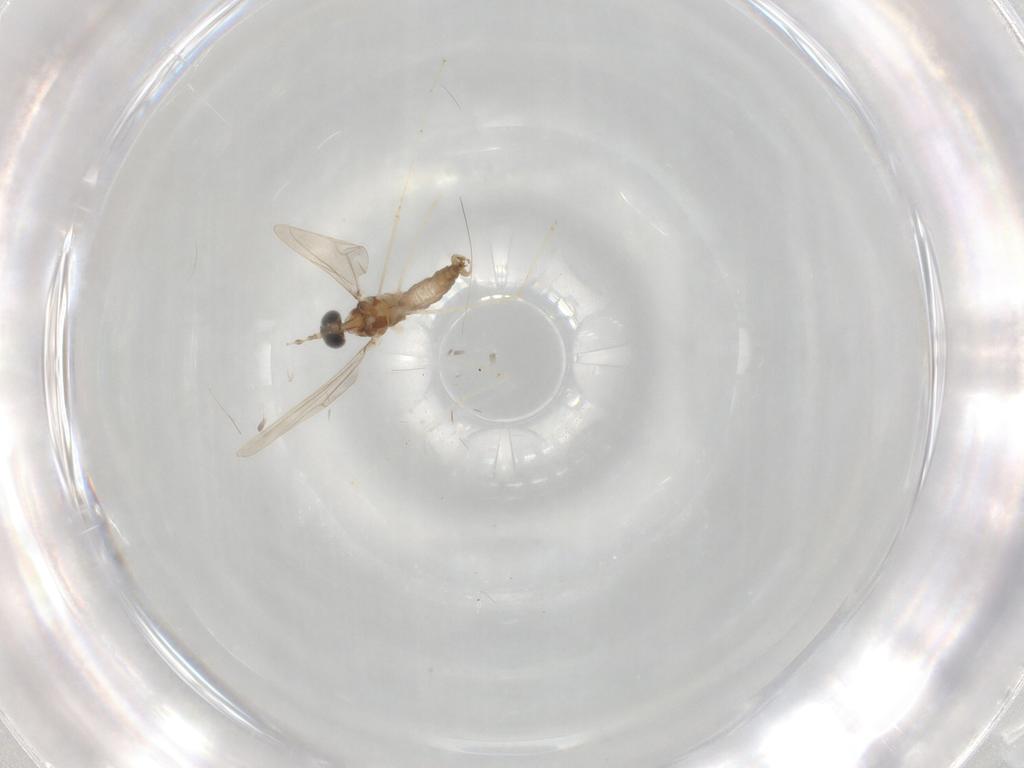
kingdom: Animalia
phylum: Arthropoda
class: Insecta
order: Diptera
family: Cecidomyiidae
